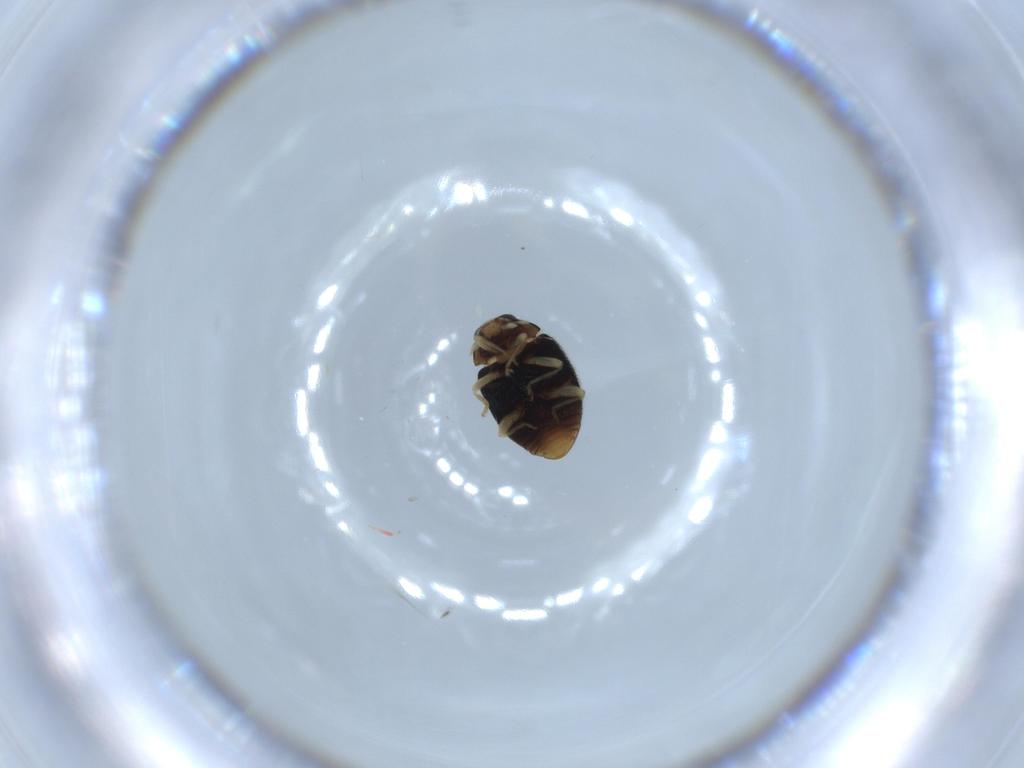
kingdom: Animalia
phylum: Arthropoda
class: Insecta
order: Coleoptera
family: Coccinellidae
